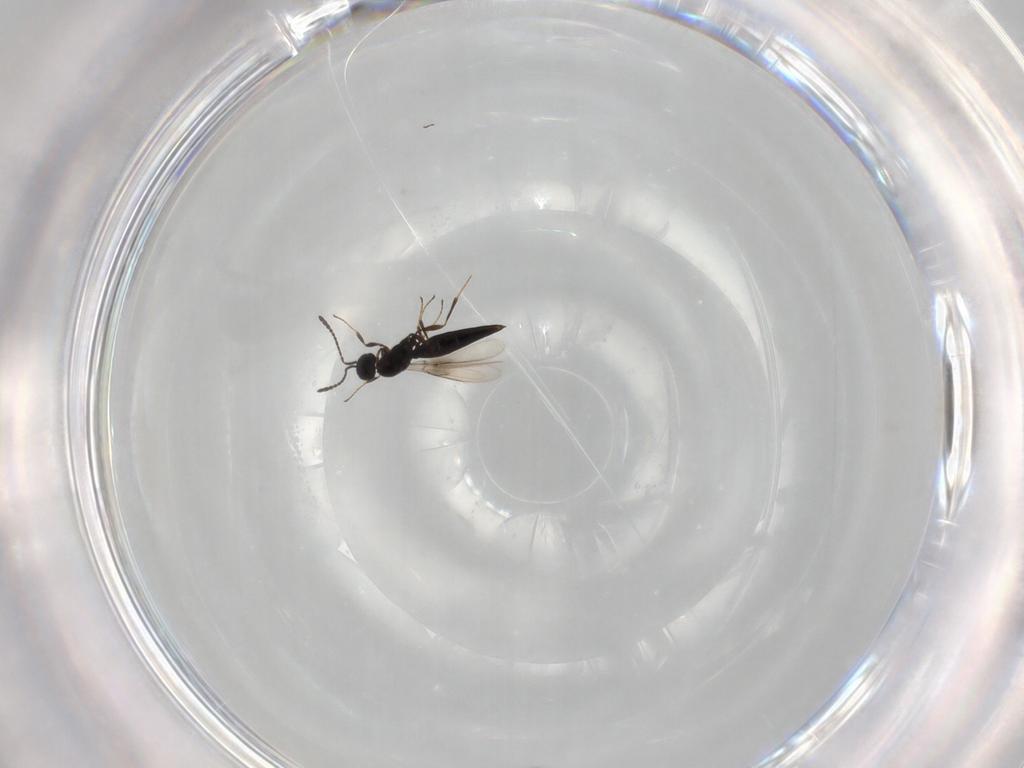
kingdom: Animalia
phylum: Arthropoda
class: Insecta
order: Hymenoptera
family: Scelionidae
